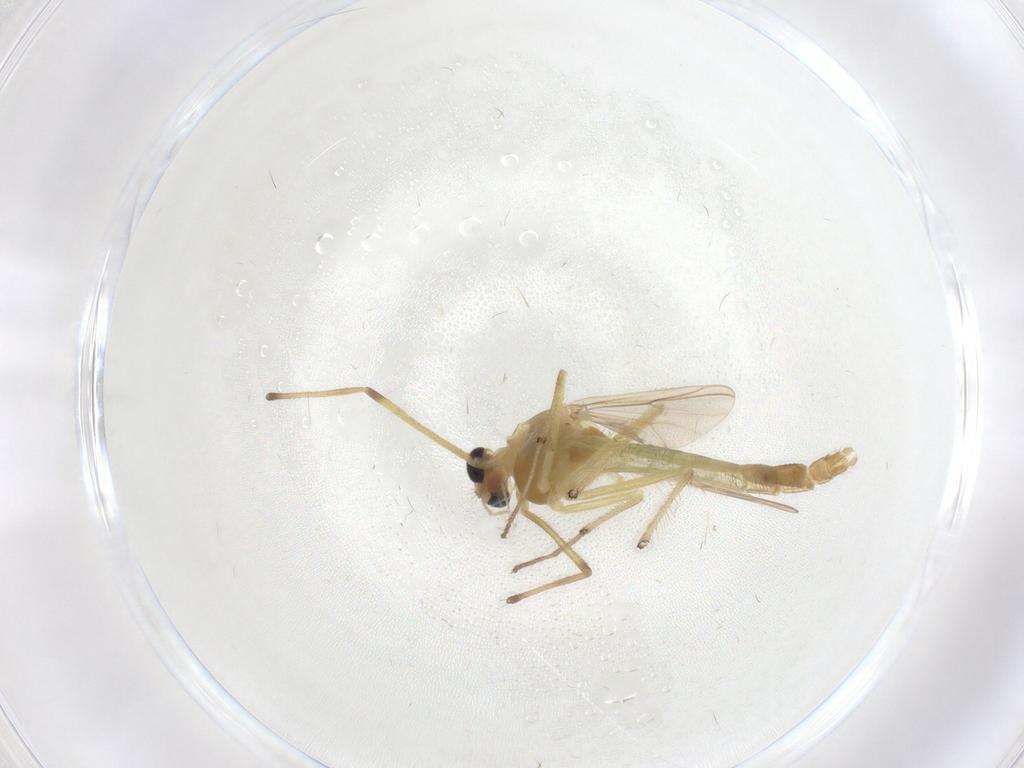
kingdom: Animalia
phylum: Arthropoda
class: Insecta
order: Diptera
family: Chironomidae
